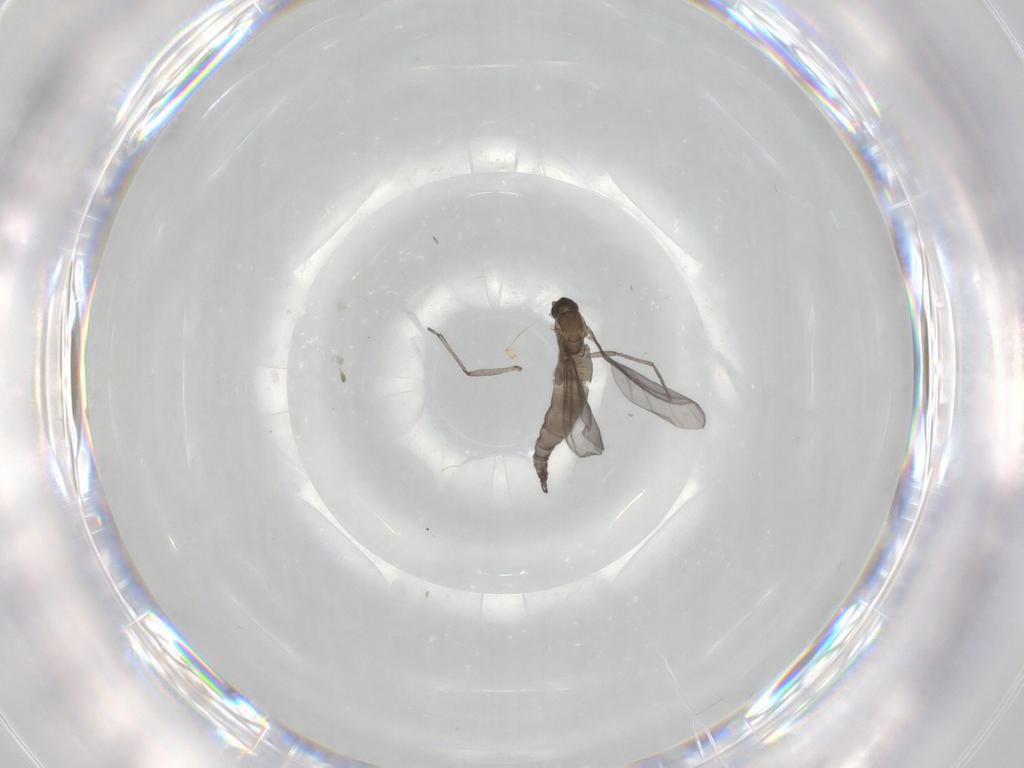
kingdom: Animalia
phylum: Arthropoda
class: Insecta
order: Diptera
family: Sciaridae
